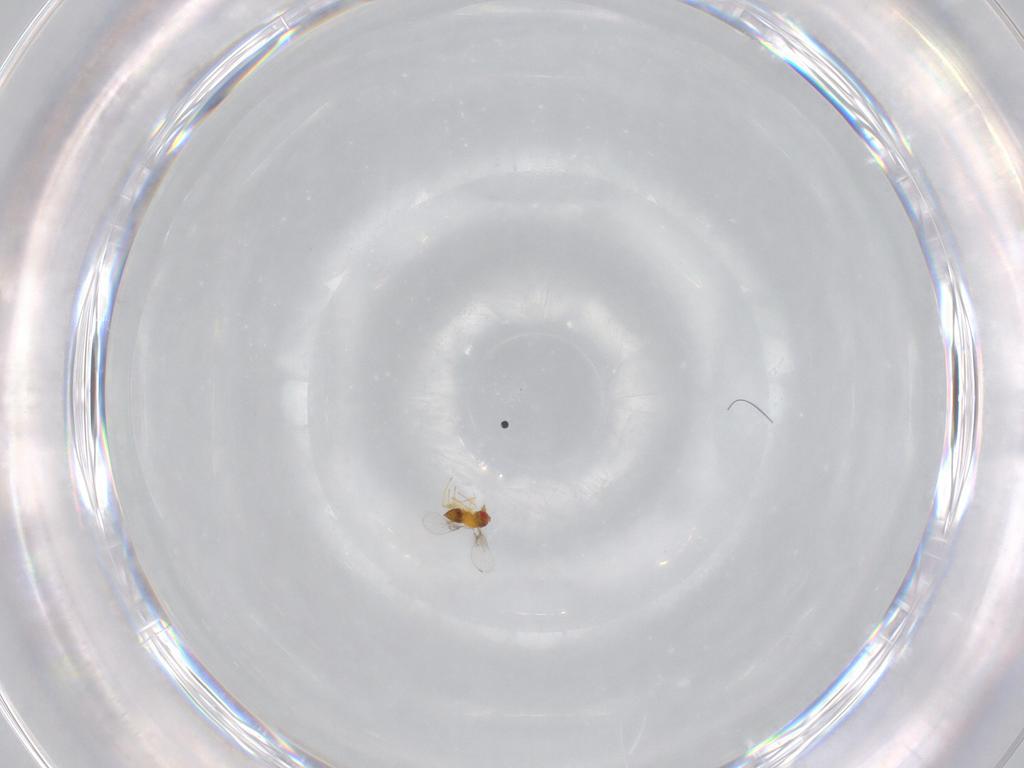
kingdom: Animalia
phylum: Arthropoda
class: Insecta
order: Hymenoptera
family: Trichogrammatidae
